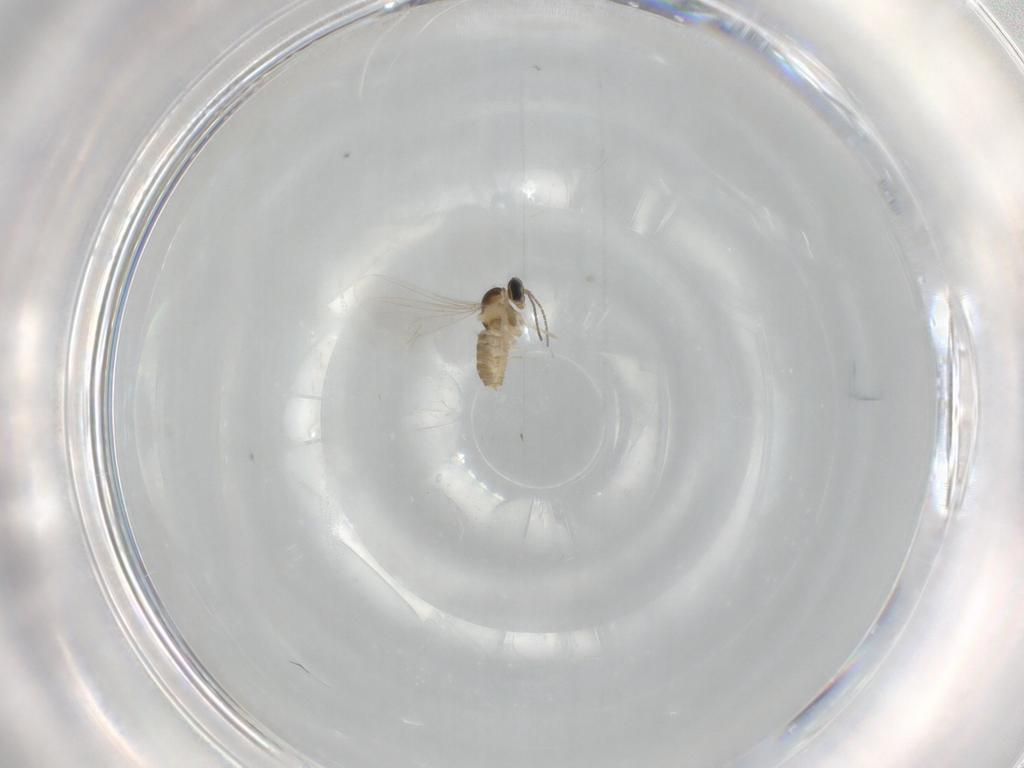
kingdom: Animalia
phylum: Arthropoda
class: Insecta
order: Diptera
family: Cecidomyiidae
